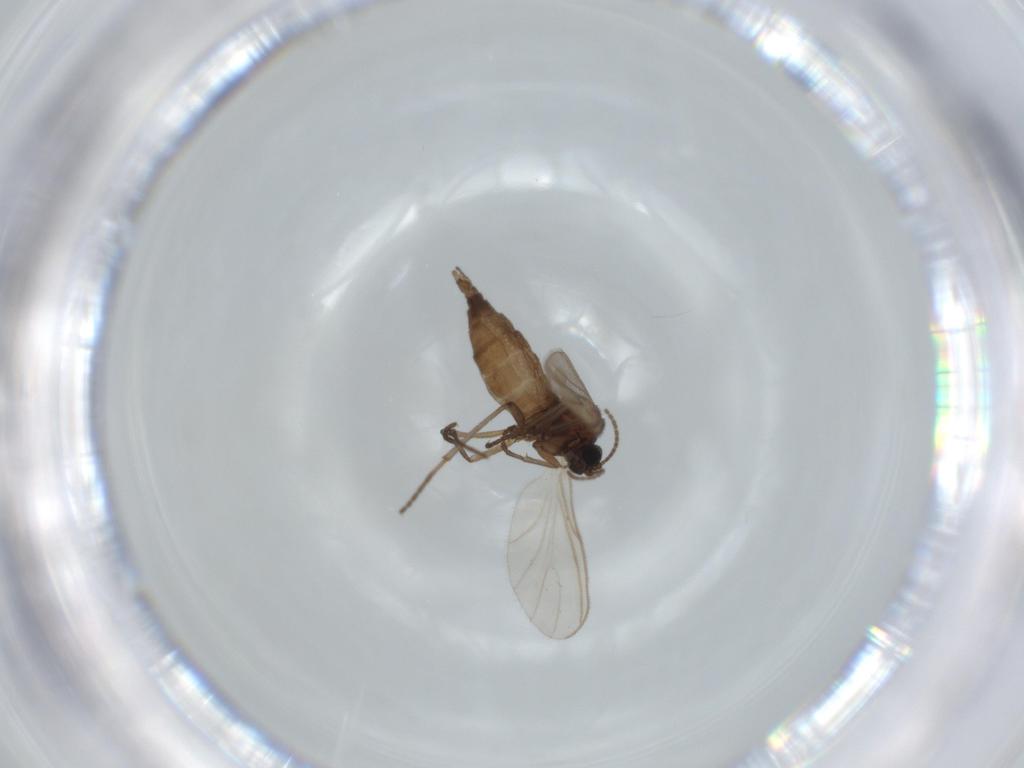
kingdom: Animalia
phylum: Arthropoda
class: Insecta
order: Diptera
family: Sciaridae
